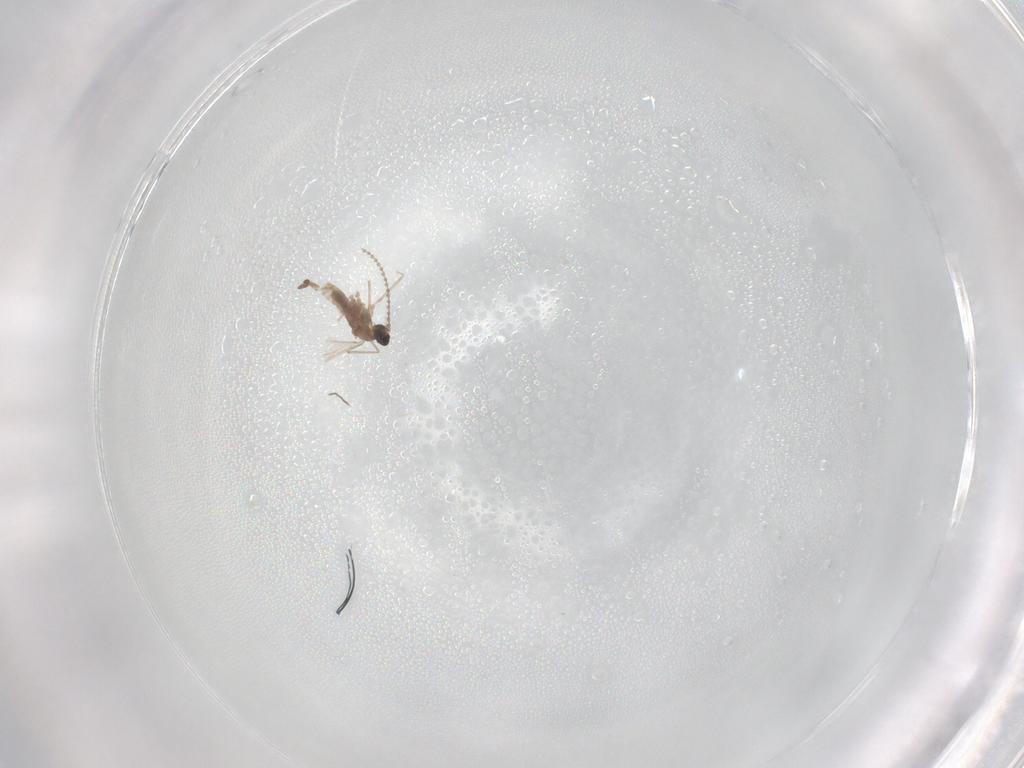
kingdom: Animalia
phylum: Arthropoda
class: Insecta
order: Diptera
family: Cecidomyiidae
